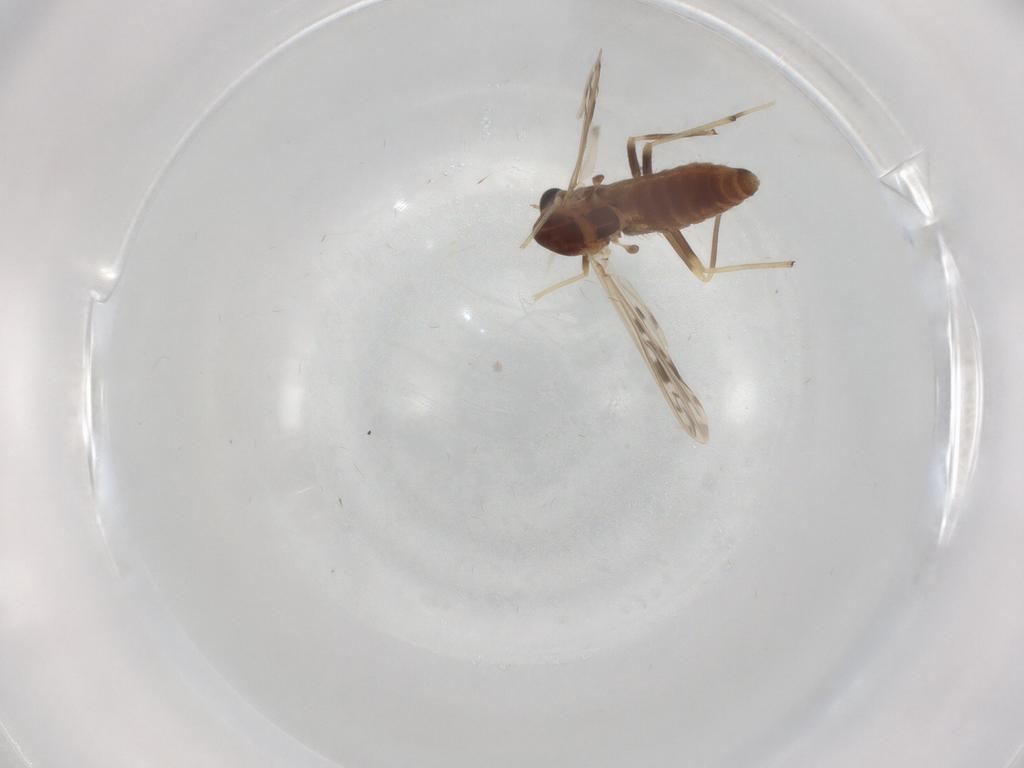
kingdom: Animalia
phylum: Arthropoda
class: Insecta
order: Diptera
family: Chironomidae
